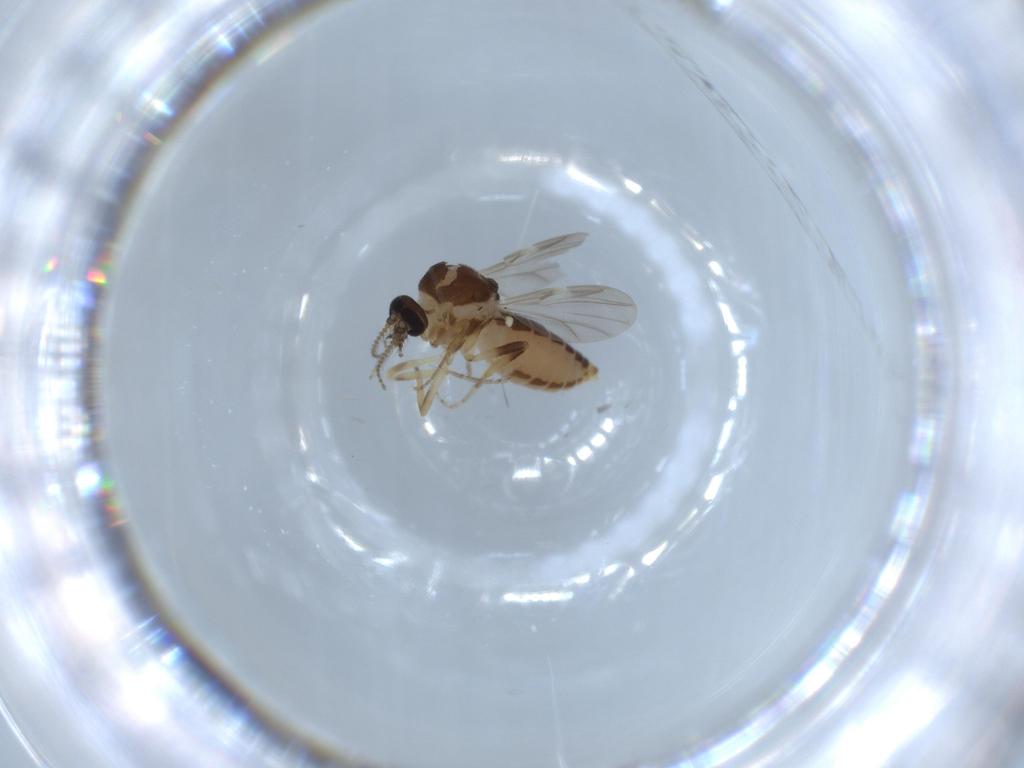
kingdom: Animalia
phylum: Arthropoda
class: Insecta
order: Diptera
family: Ceratopogonidae
